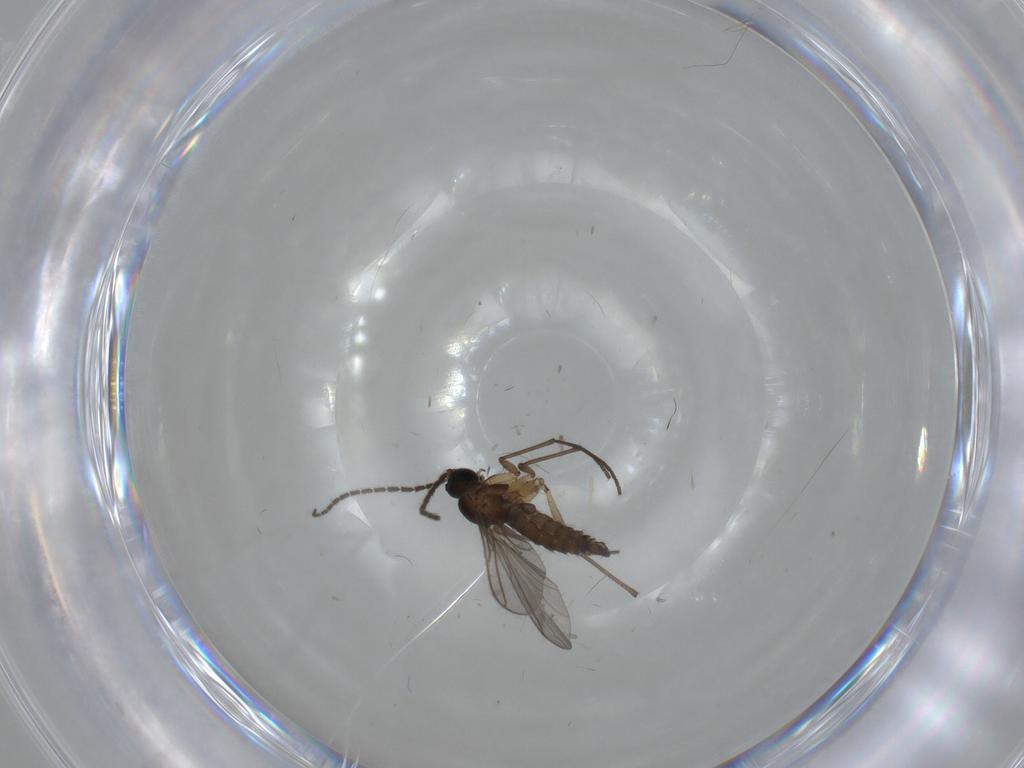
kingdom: Animalia
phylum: Arthropoda
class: Insecta
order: Diptera
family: Sciaridae
